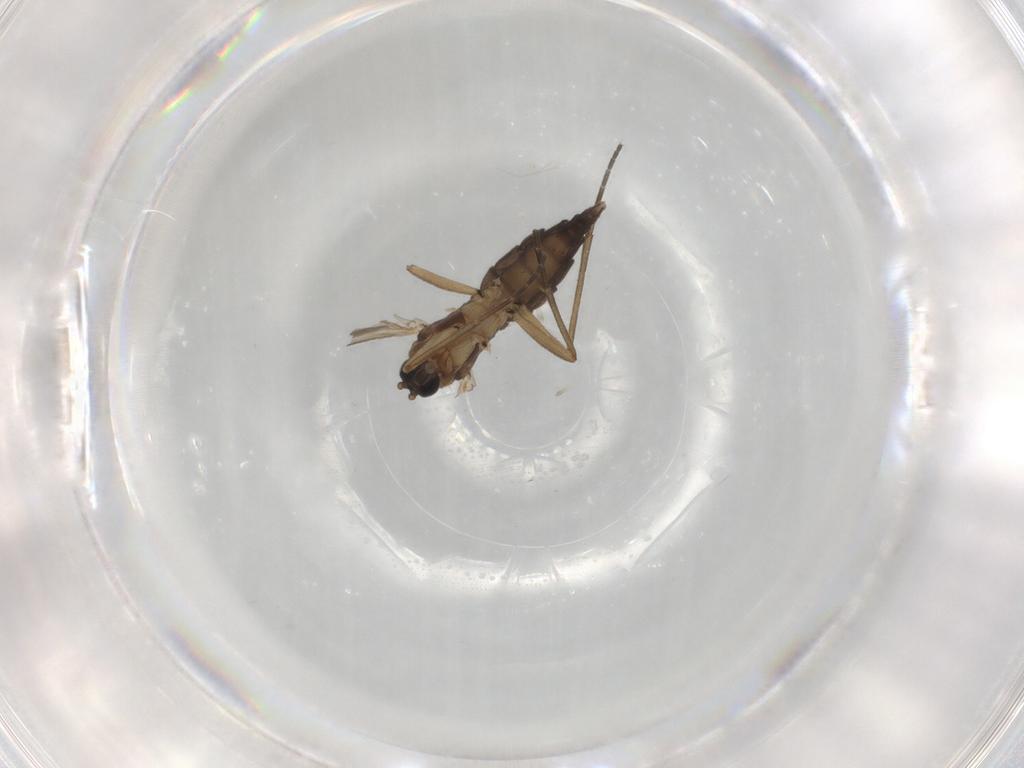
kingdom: Animalia
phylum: Arthropoda
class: Insecta
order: Diptera
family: Sciaridae
